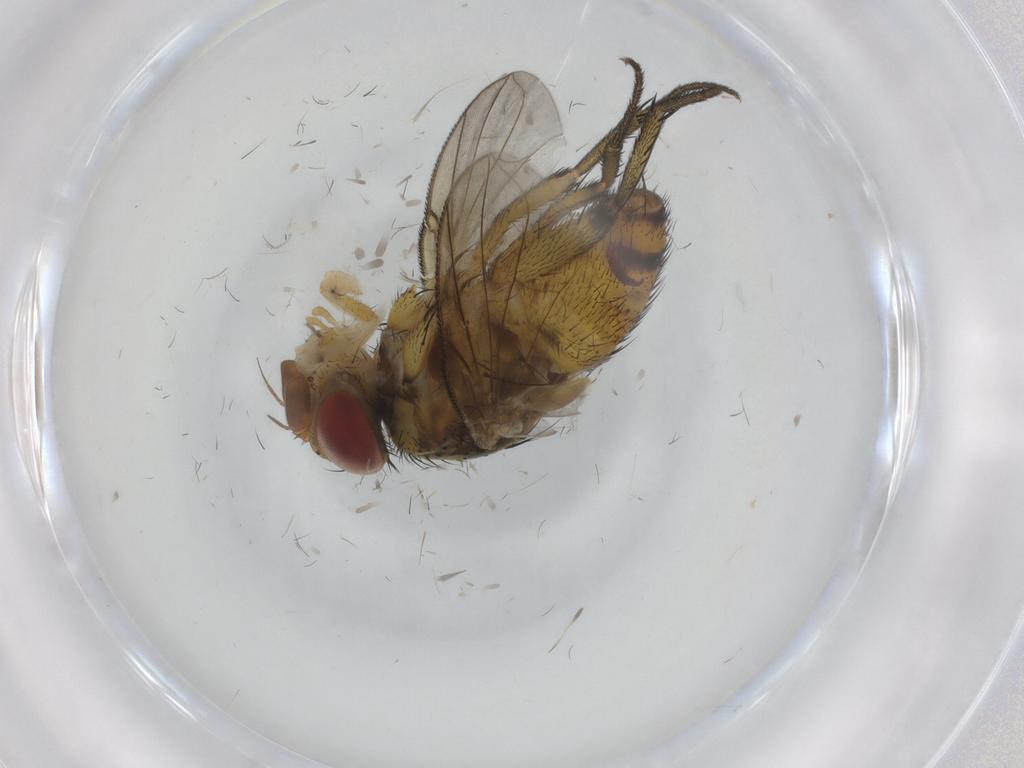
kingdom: Animalia
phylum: Arthropoda
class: Insecta
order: Diptera
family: Tachinidae
